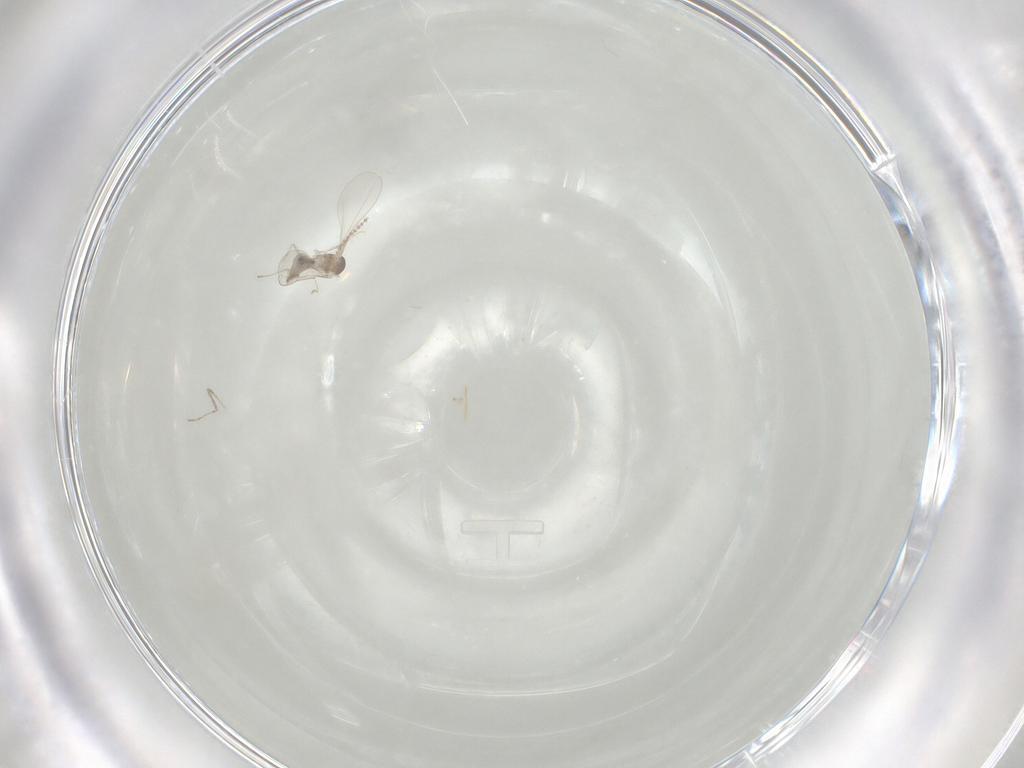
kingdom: Animalia
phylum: Arthropoda
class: Insecta
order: Diptera
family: Cecidomyiidae
